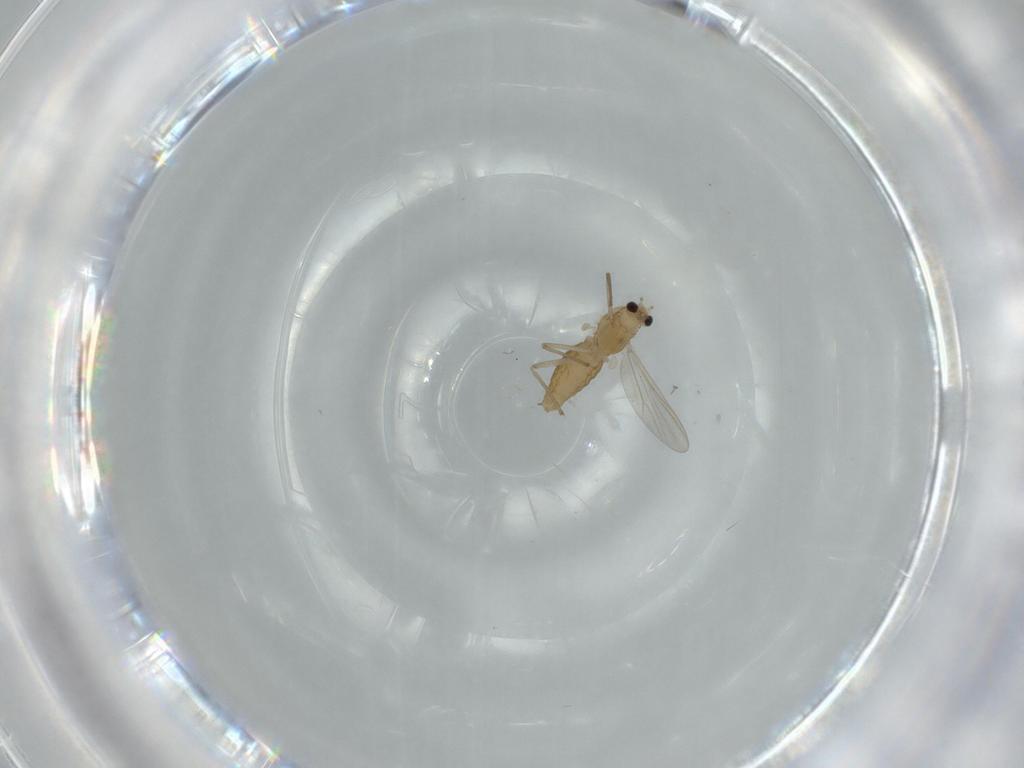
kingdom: Animalia
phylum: Arthropoda
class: Insecta
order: Diptera
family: Chironomidae
